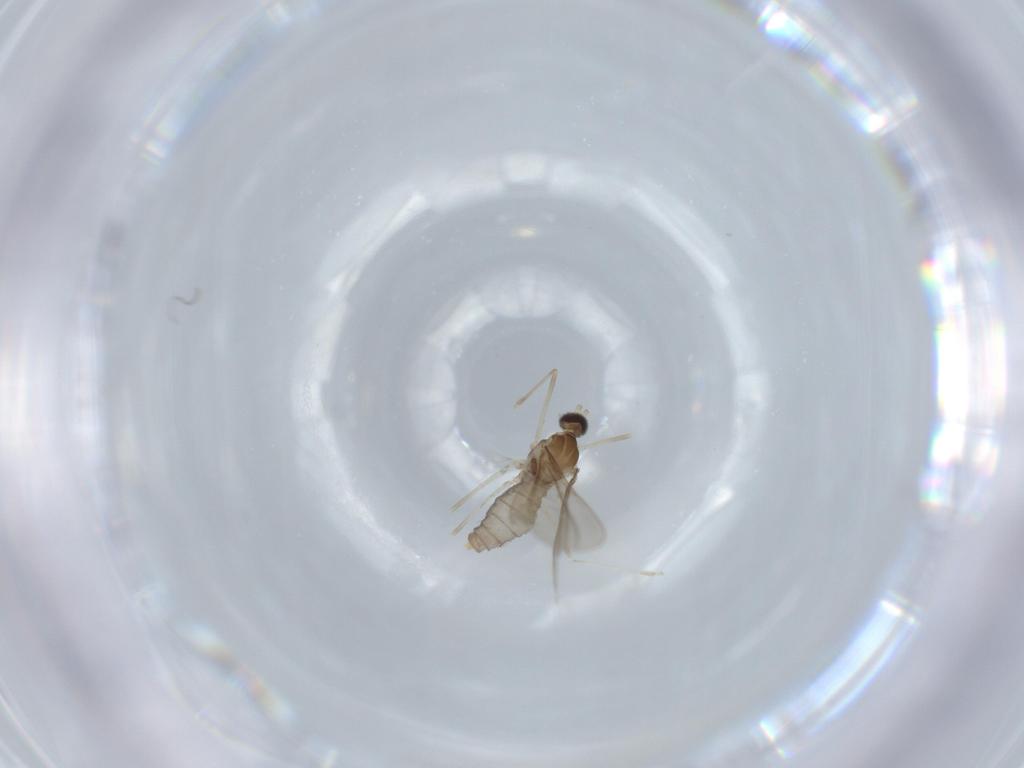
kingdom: Animalia
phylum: Arthropoda
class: Insecta
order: Diptera
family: Cecidomyiidae
